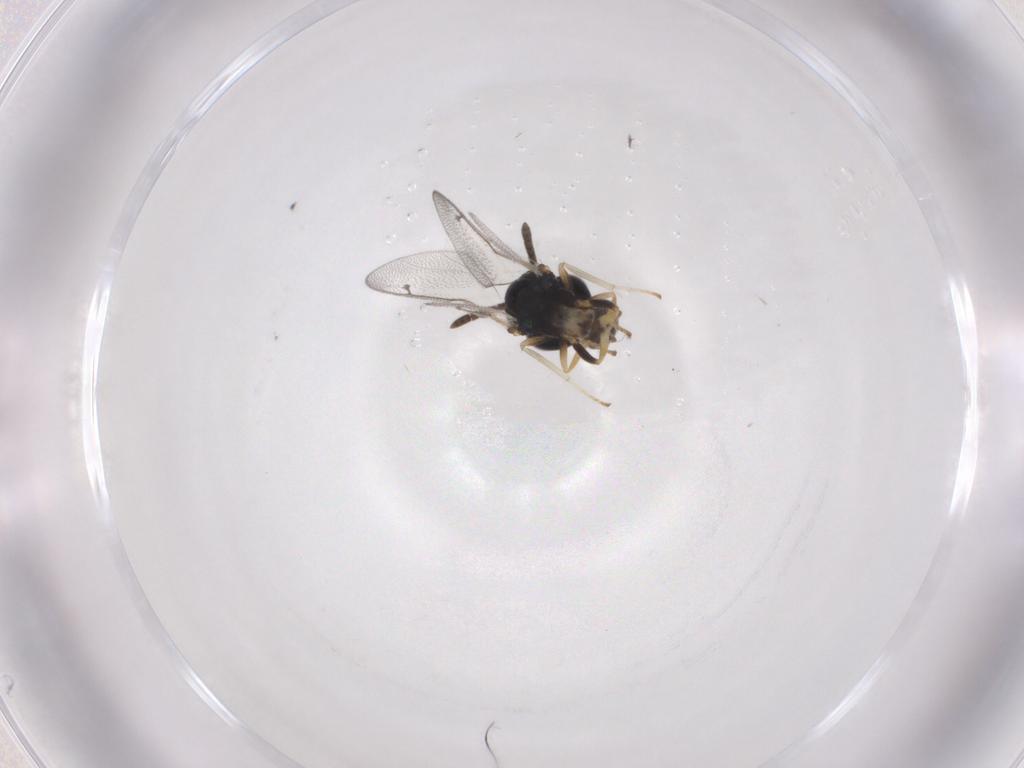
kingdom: Animalia
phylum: Arthropoda
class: Insecta
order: Hymenoptera
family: Pteromalidae
